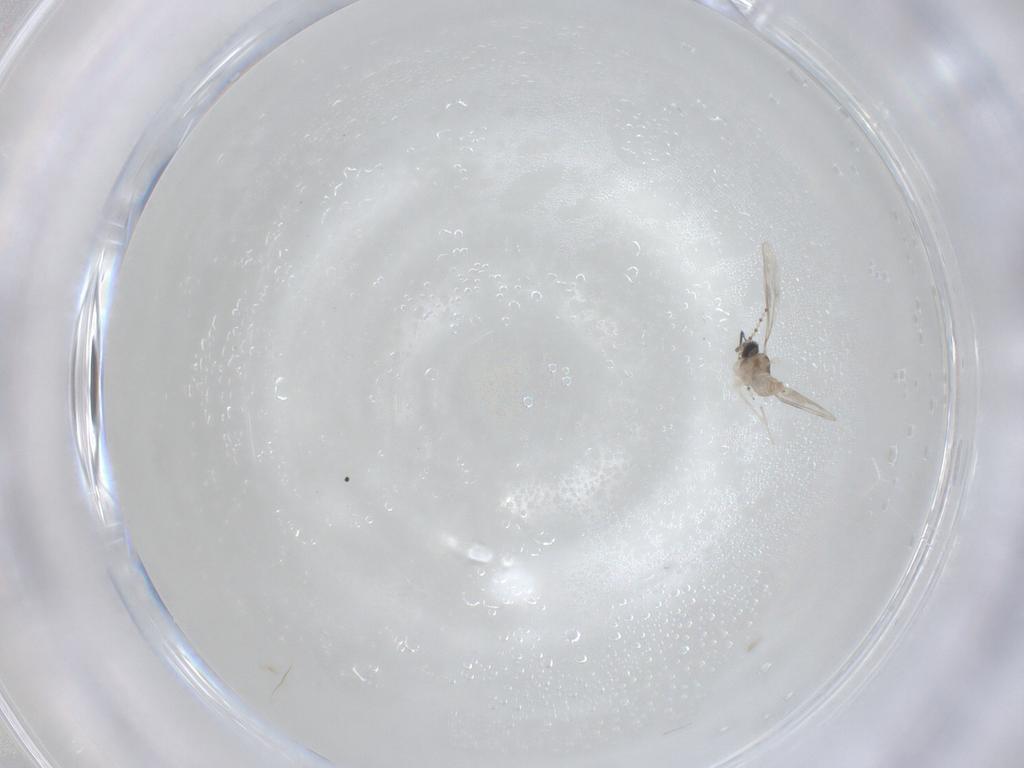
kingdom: Animalia
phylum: Arthropoda
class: Insecta
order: Diptera
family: Cecidomyiidae
